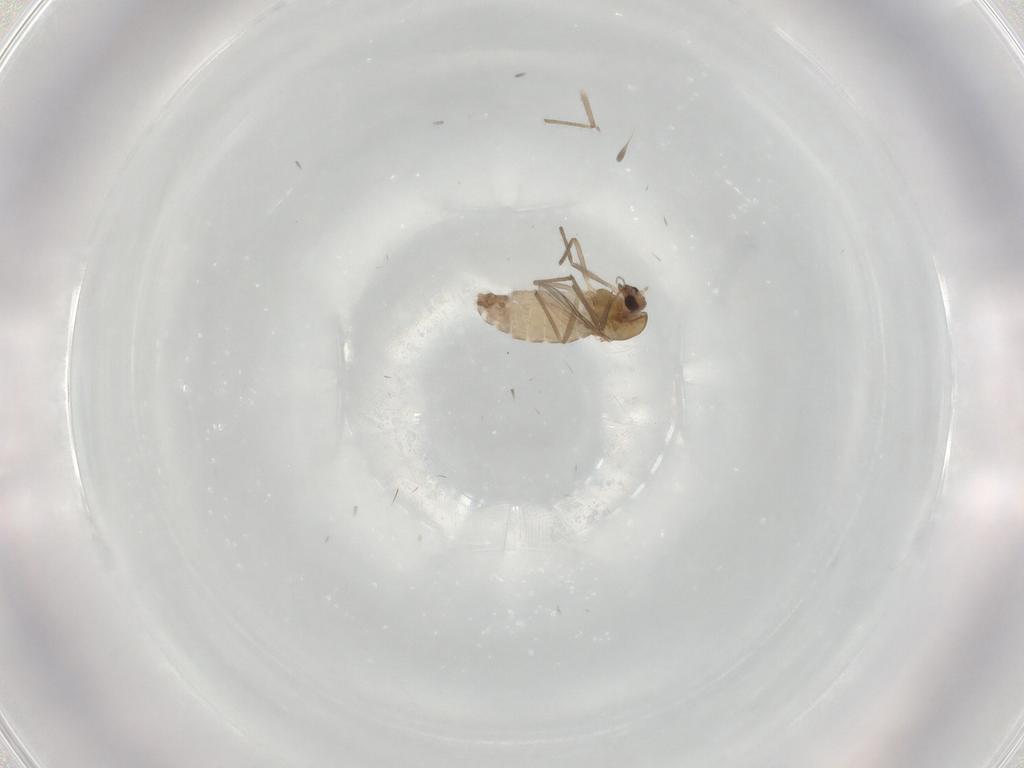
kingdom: Animalia
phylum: Arthropoda
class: Insecta
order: Diptera
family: Chironomidae
